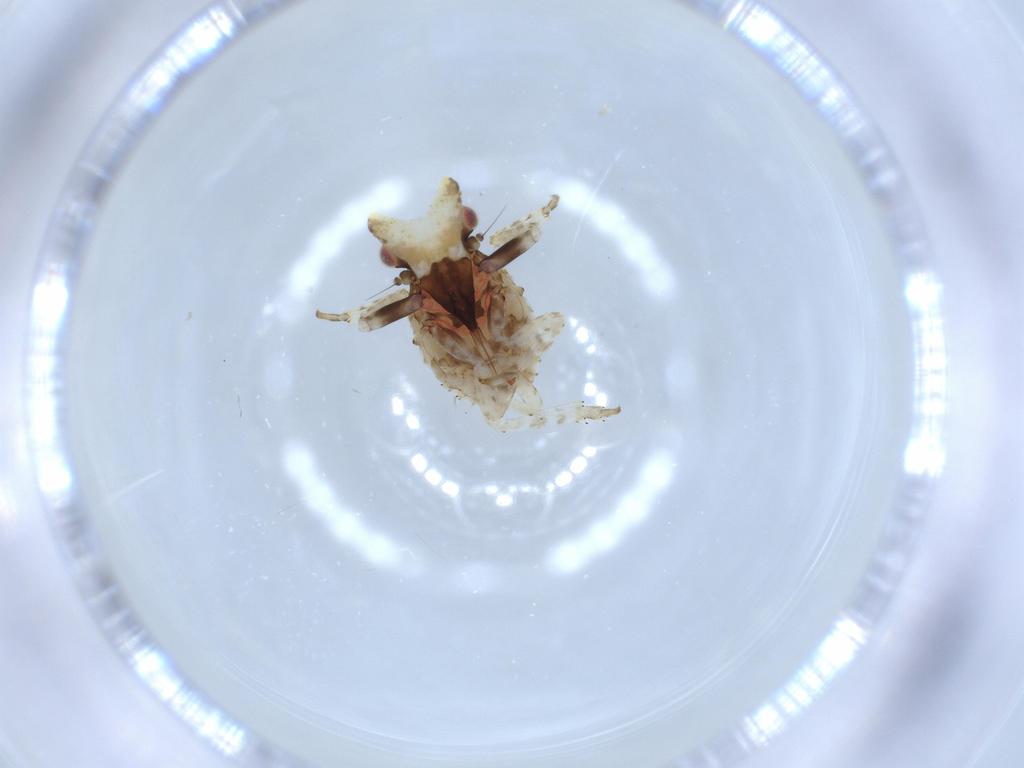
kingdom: Animalia
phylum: Arthropoda
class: Insecta
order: Hemiptera
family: Fulgoridae
